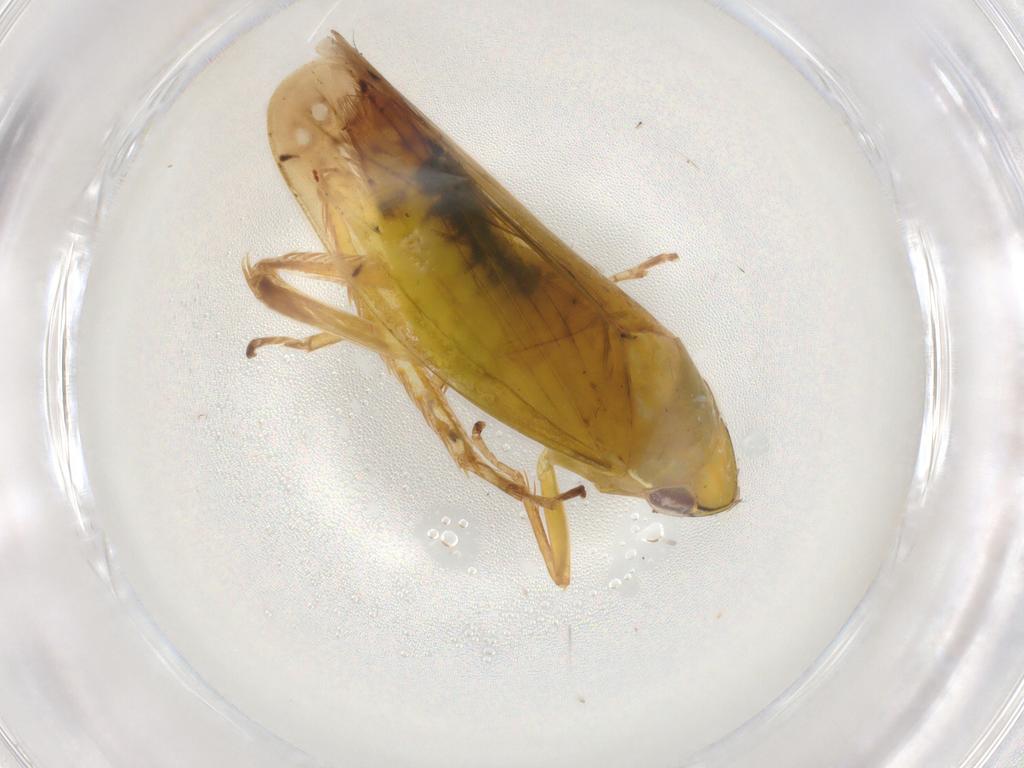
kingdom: Animalia
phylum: Arthropoda
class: Insecta
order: Hemiptera
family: Cicadellidae
